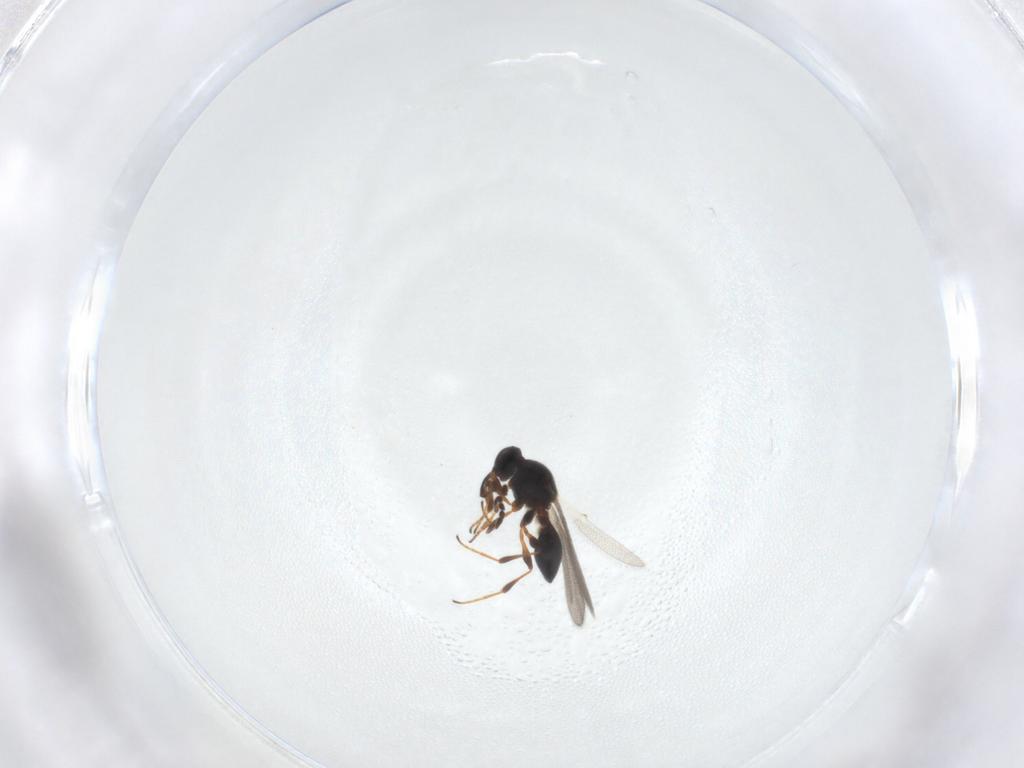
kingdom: Animalia
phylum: Arthropoda
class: Insecta
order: Hymenoptera
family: Platygastridae
